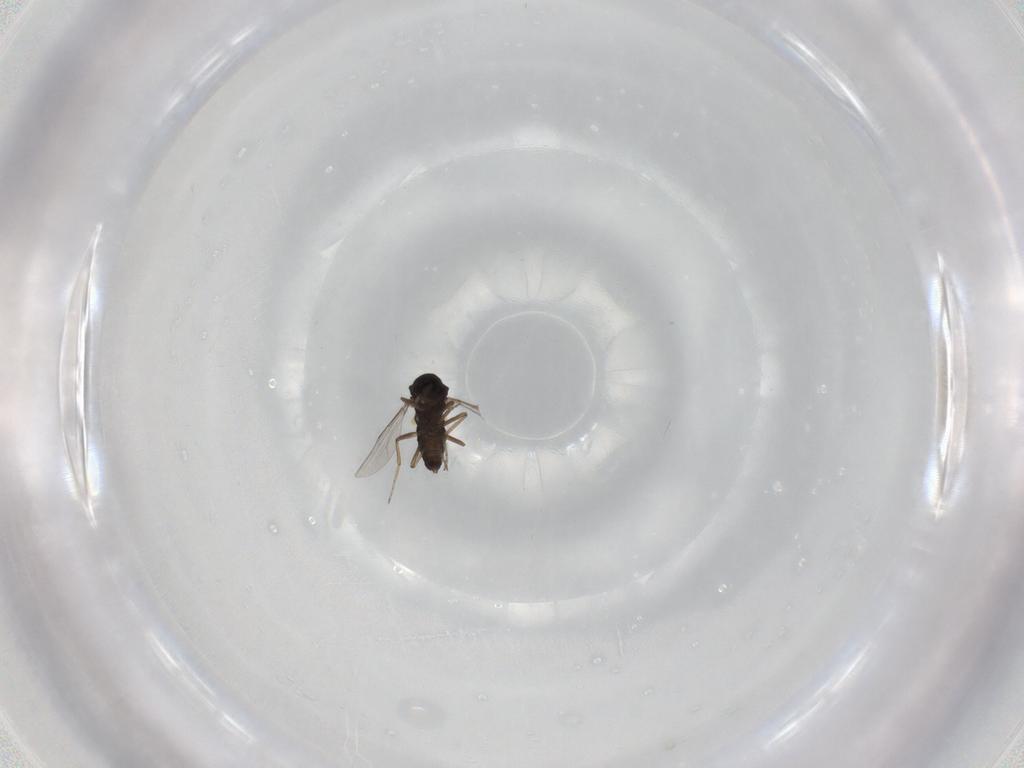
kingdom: Animalia
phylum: Arthropoda
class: Insecta
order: Diptera
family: Ceratopogonidae
